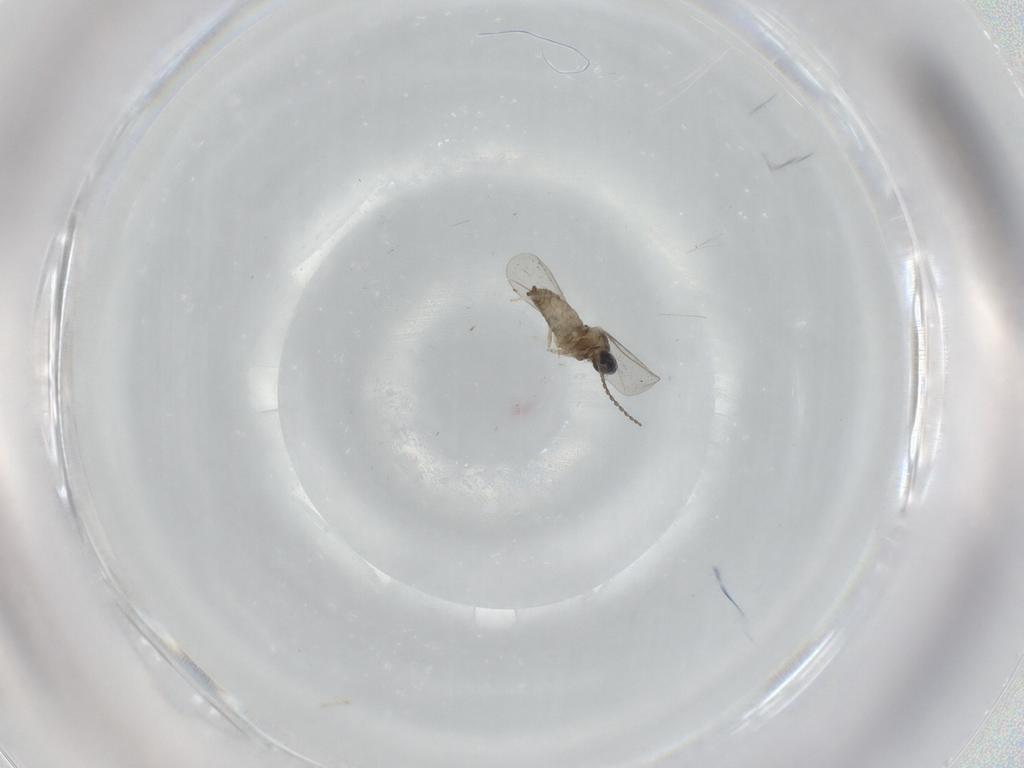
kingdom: Animalia
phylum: Arthropoda
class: Insecta
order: Diptera
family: Cecidomyiidae
